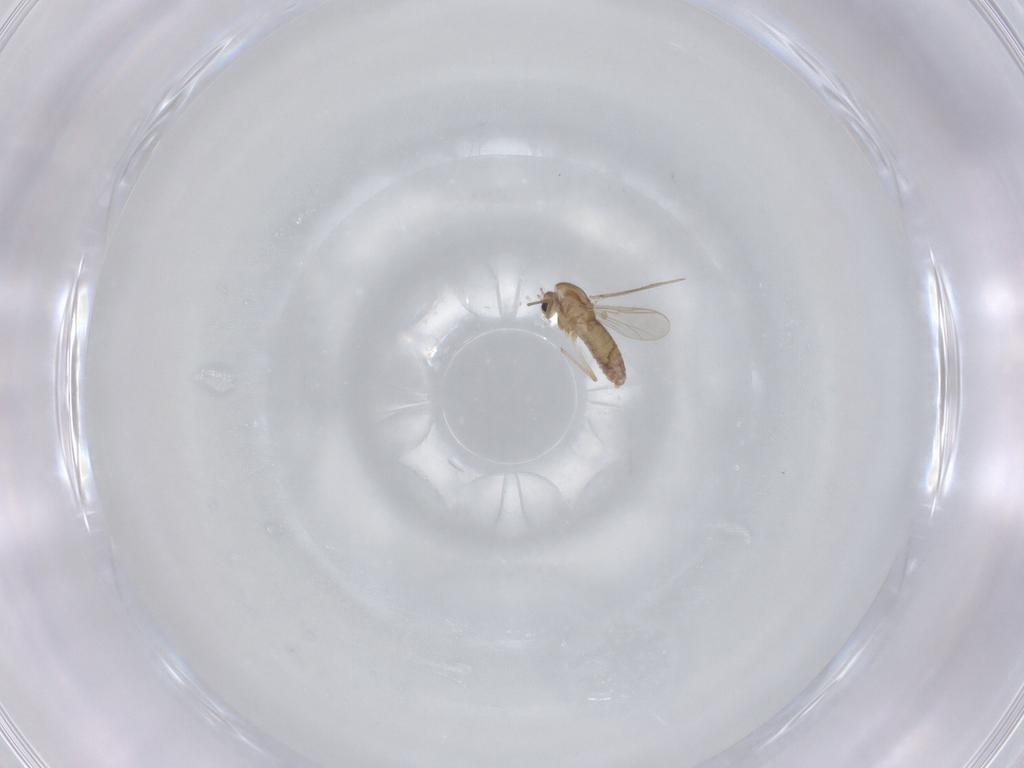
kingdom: Animalia
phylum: Arthropoda
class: Insecta
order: Diptera
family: Chironomidae
